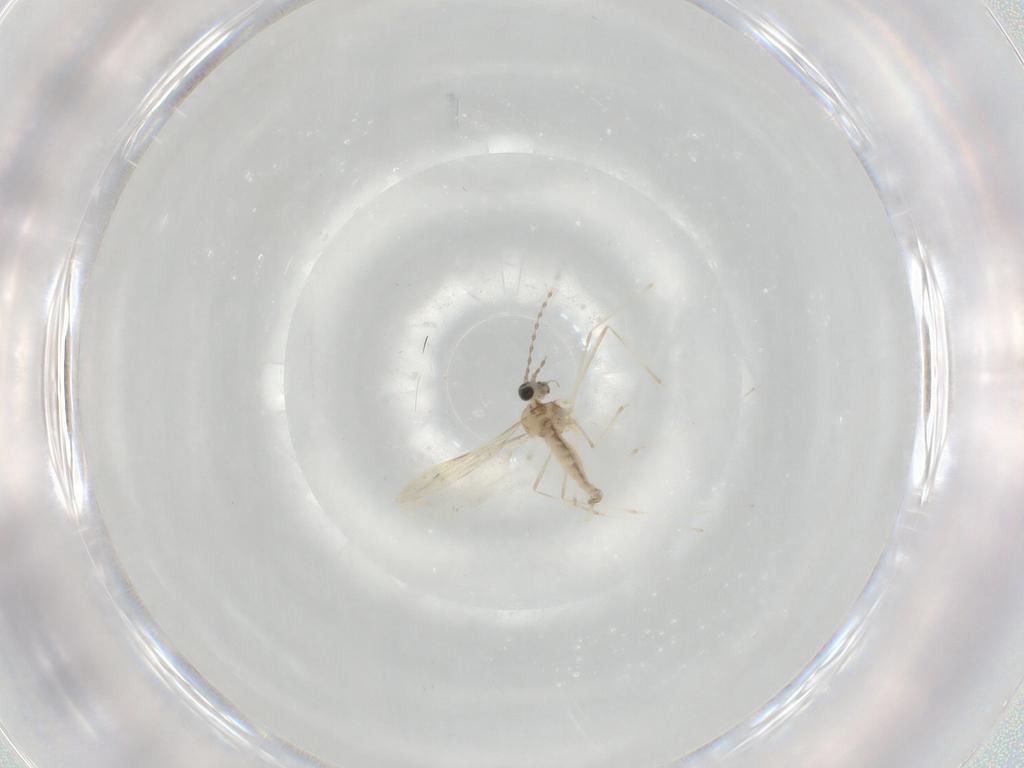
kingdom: Animalia
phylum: Arthropoda
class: Insecta
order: Diptera
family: Cecidomyiidae
